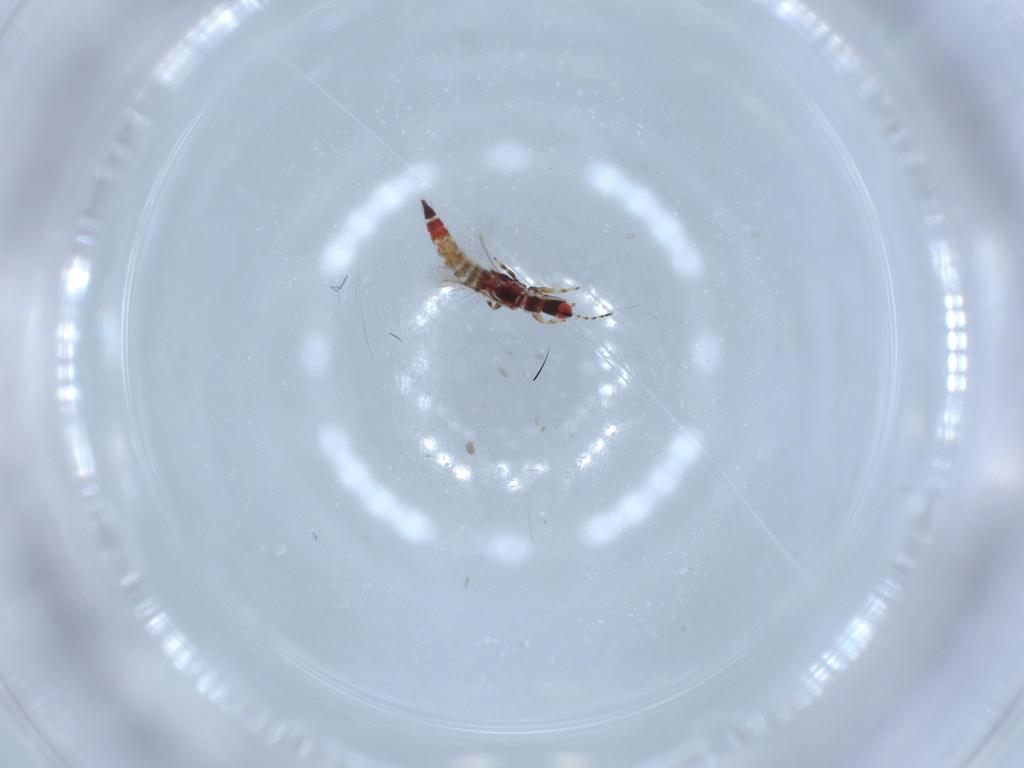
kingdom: Animalia
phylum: Arthropoda
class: Insecta
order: Thysanoptera
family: Phlaeothripidae
